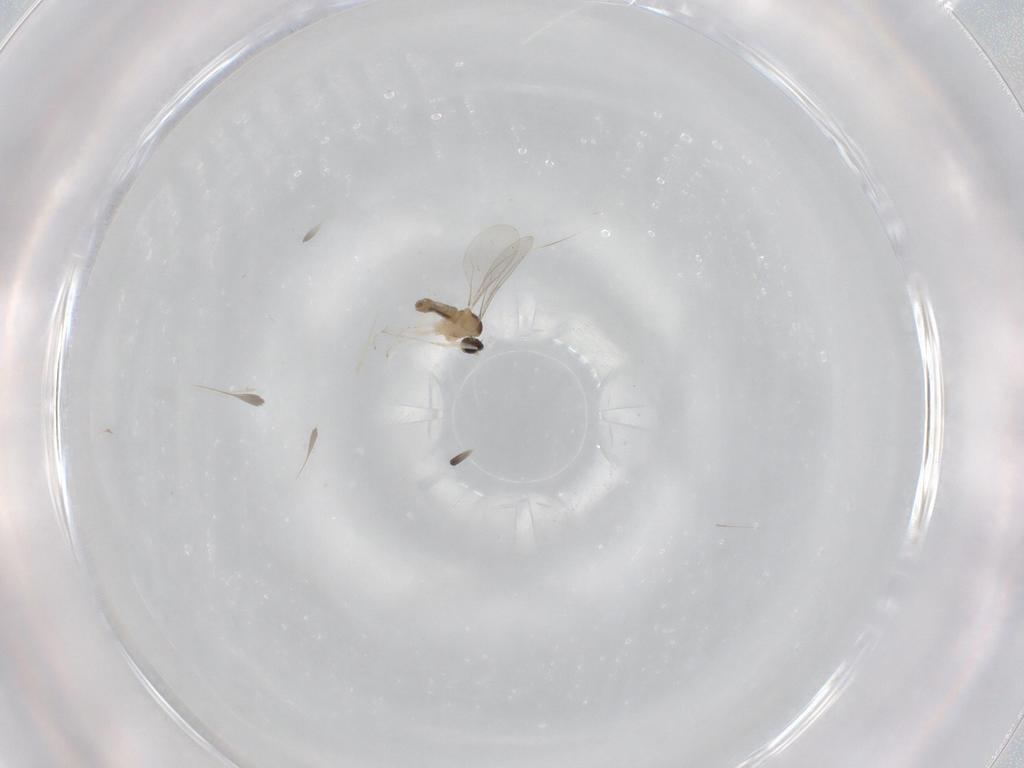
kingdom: Animalia
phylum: Arthropoda
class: Insecta
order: Diptera
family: Cecidomyiidae
